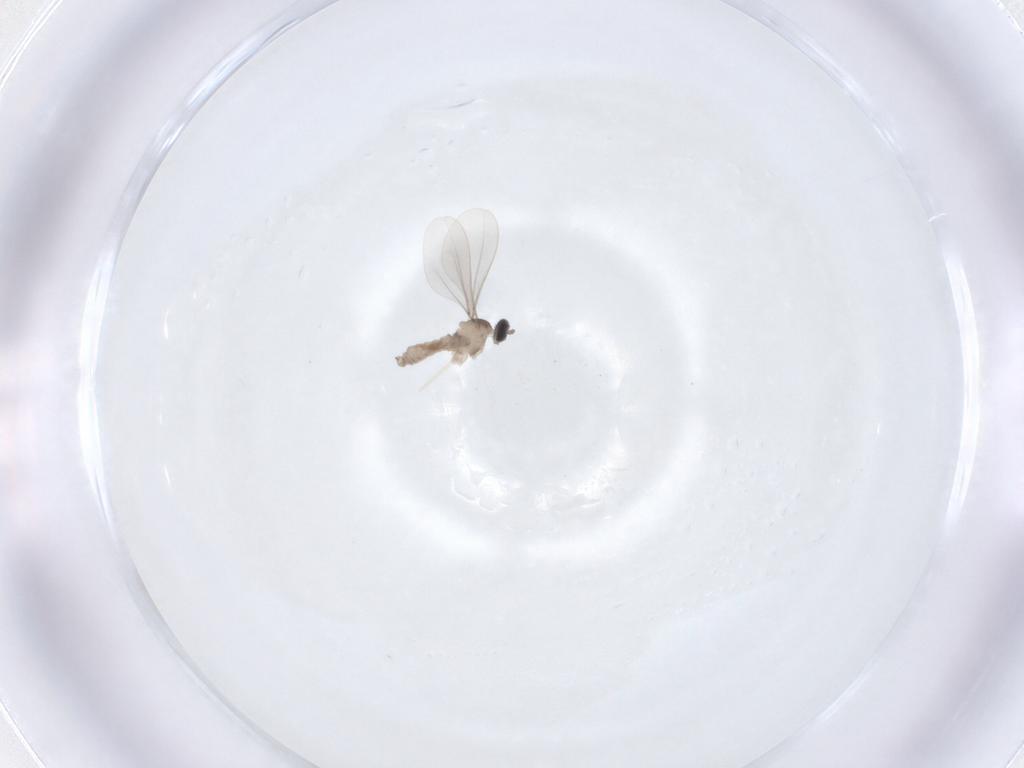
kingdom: Animalia
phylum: Arthropoda
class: Insecta
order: Diptera
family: Ceratopogonidae
